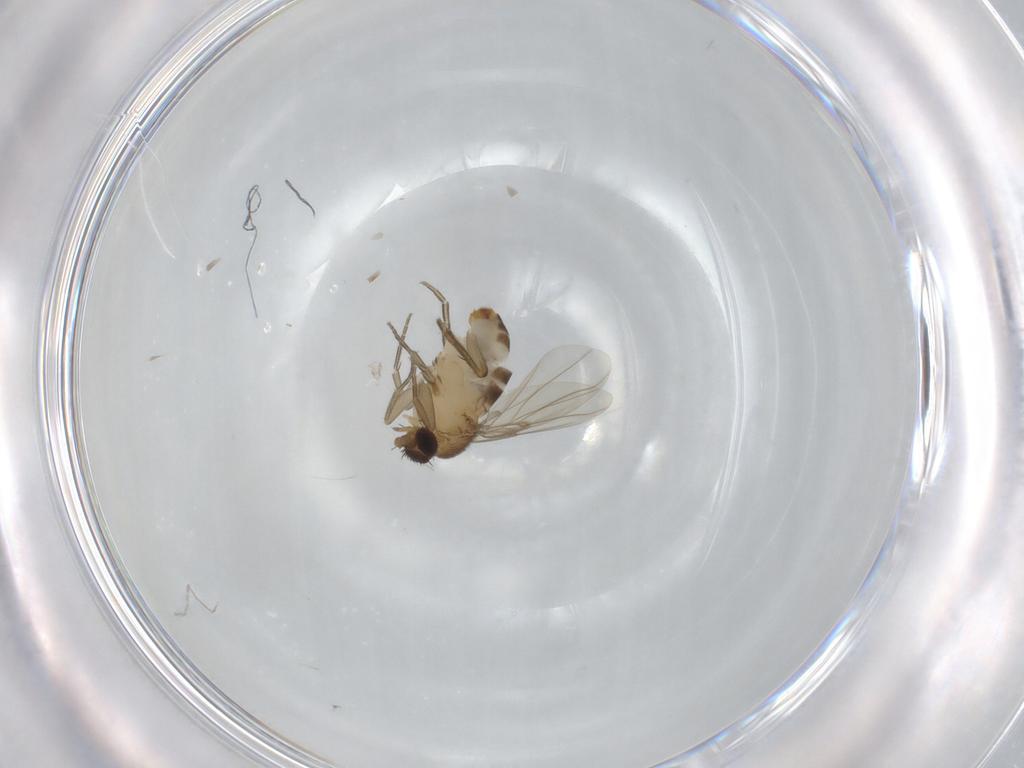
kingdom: Animalia
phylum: Arthropoda
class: Insecta
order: Diptera
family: Phoridae
